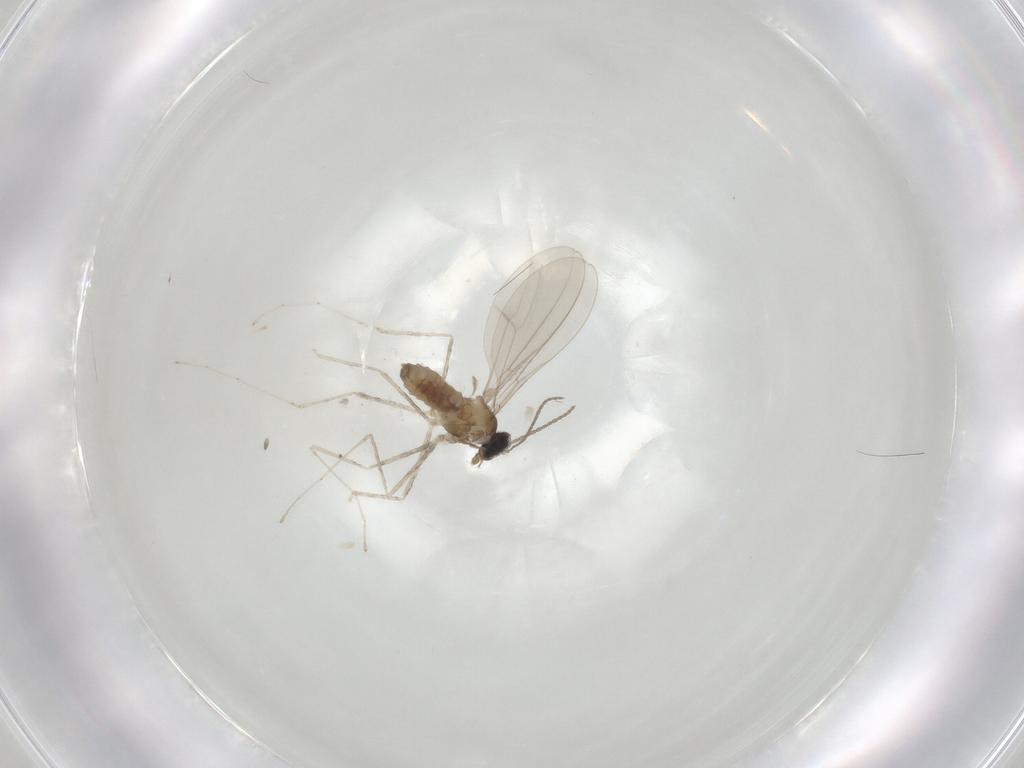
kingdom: Animalia
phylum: Arthropoda
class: Insecta
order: Diptera
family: Cecidomyiidae
